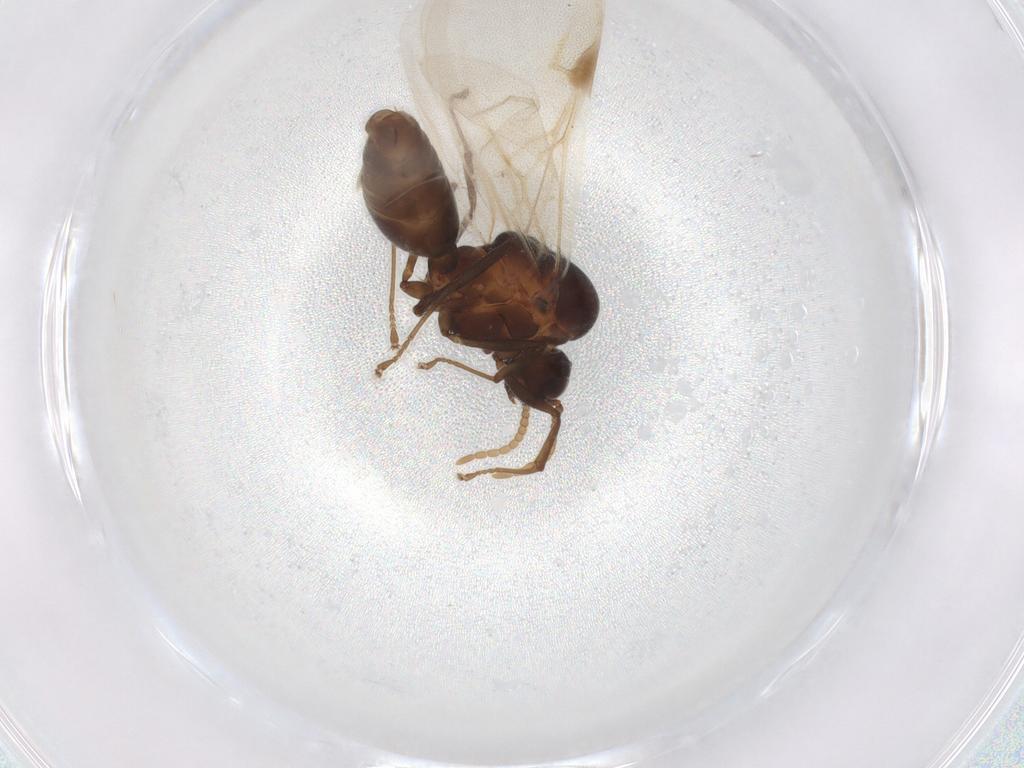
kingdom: Animalia
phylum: Arthropoda
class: Insecta
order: Hymenoptera
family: Formicidae
